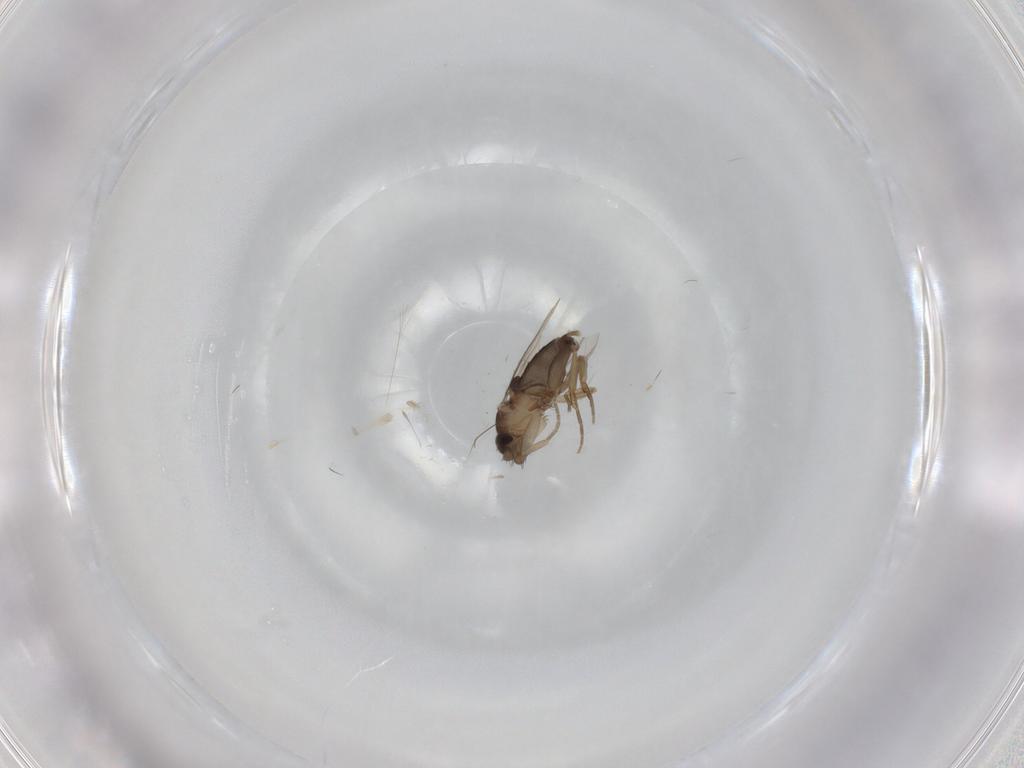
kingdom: Animalia
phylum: Arthropoda
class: Insecta
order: Diptera
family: Phoridae
